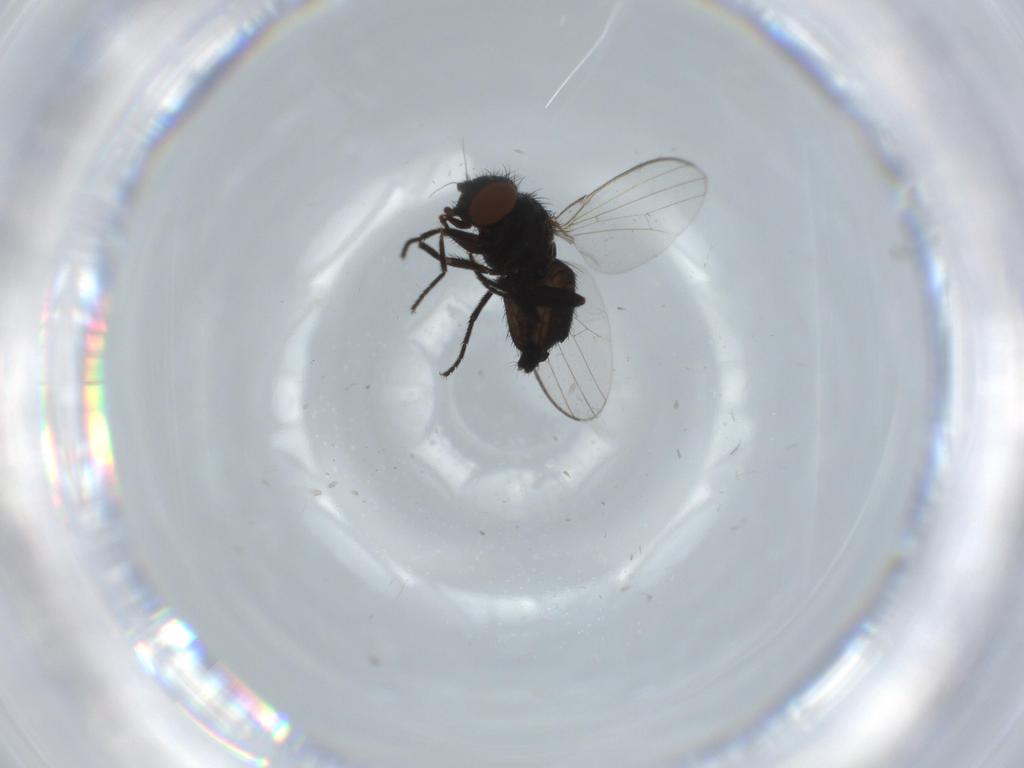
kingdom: Animalia
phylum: Arthropoda
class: Insecta
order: Diptera
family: Milichiidae
